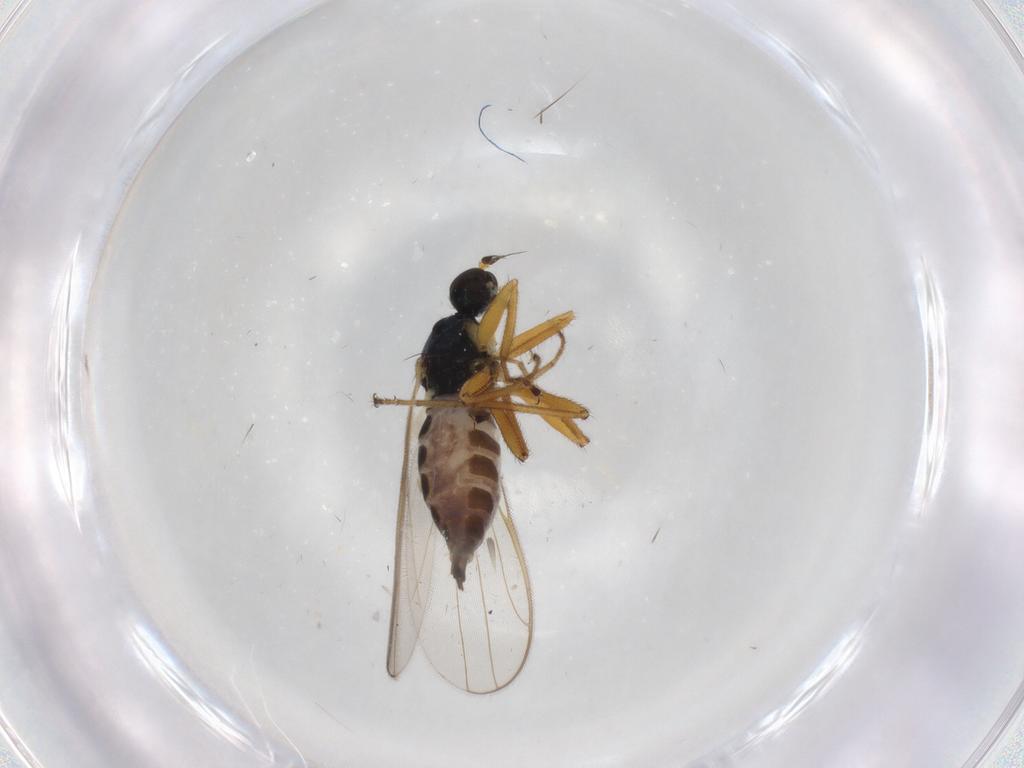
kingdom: Animalia
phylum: Arthropoda
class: Insecta
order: Diptera
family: Hybotidae
